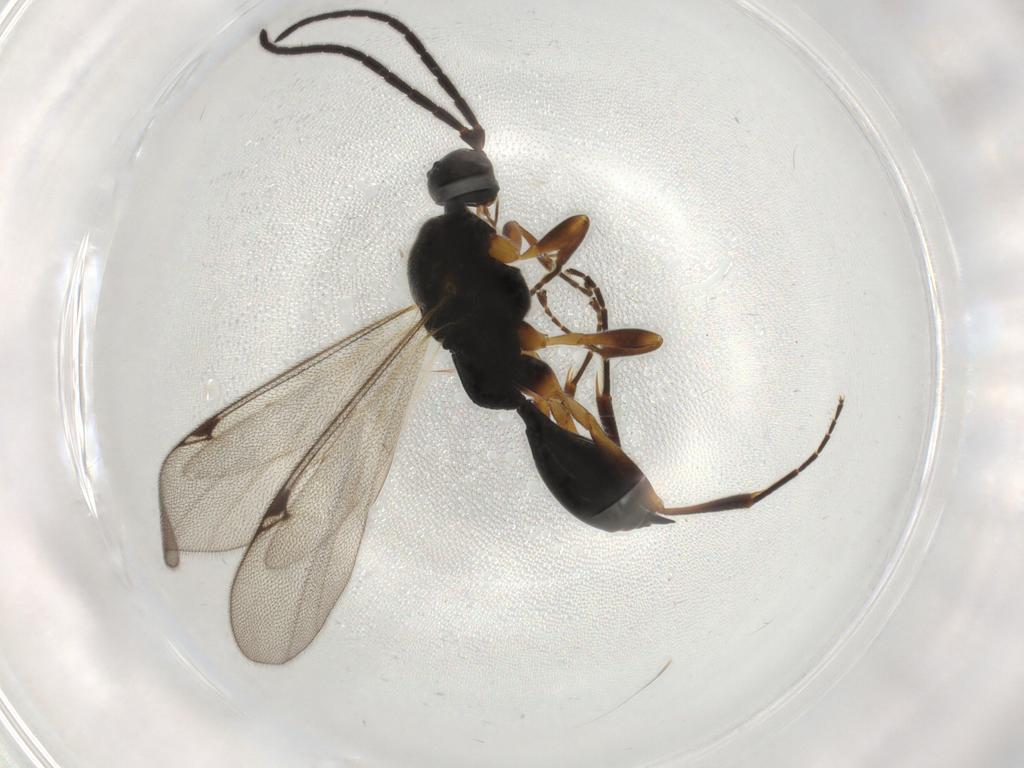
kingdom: Animalia
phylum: Arthropoda
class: Insecta
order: Hymenoptera
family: Proctotrupidae
